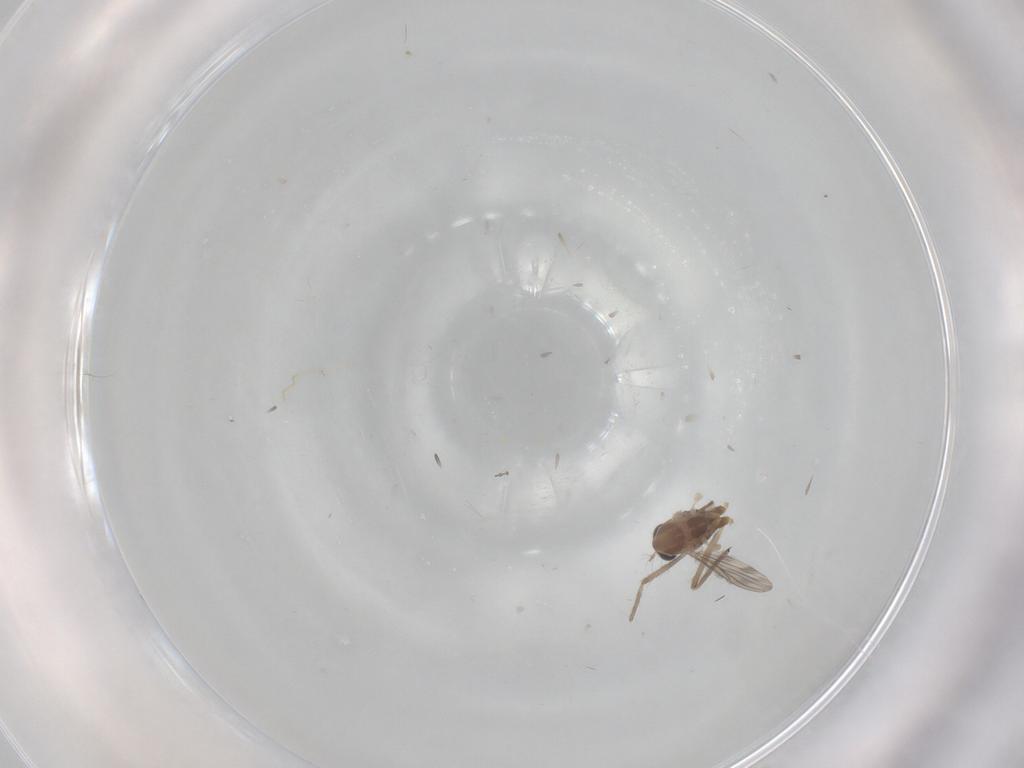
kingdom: Animalia
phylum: Arthropoda
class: Insecta
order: Diptera
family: Chironomidae
